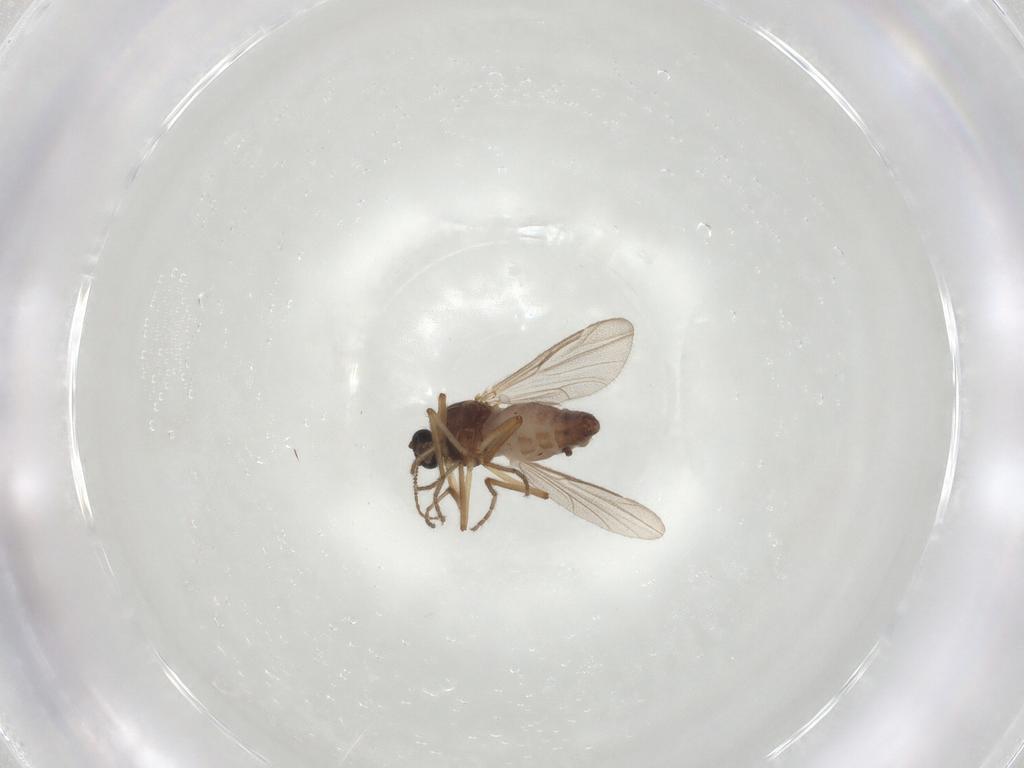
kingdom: Animalia
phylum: Arthropoda
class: Insecta
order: Diptera
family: Ceratopogonidae
